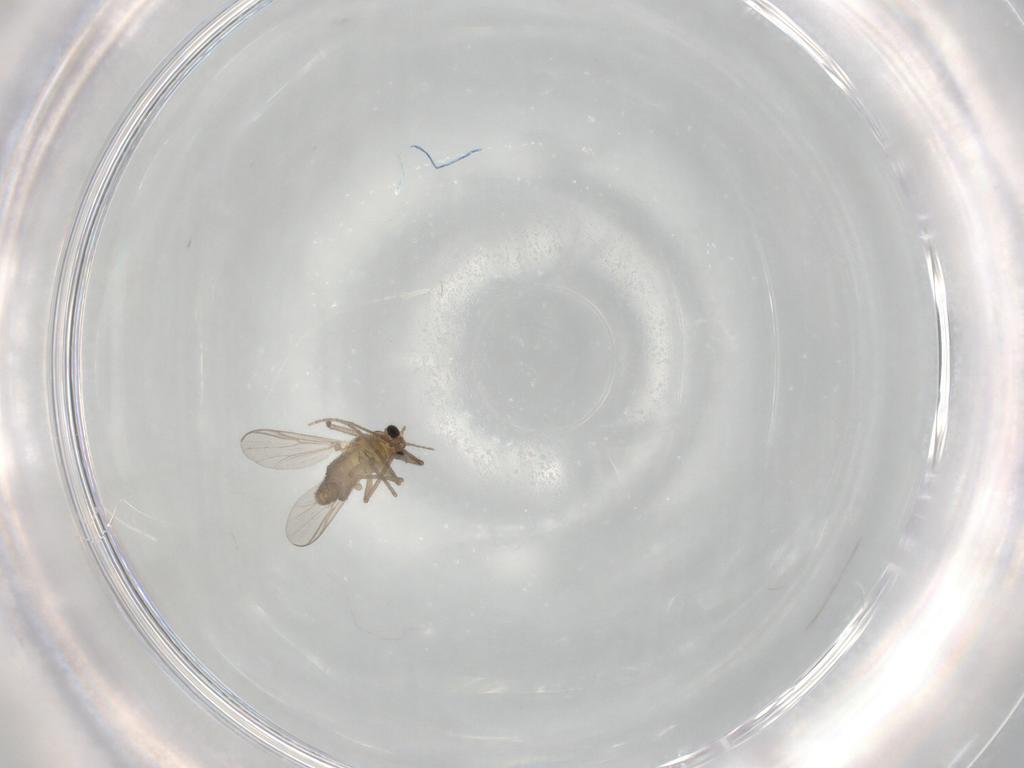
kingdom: Animalia
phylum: Arthropoda
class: Insecta
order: Diptera
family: Chironomidae
